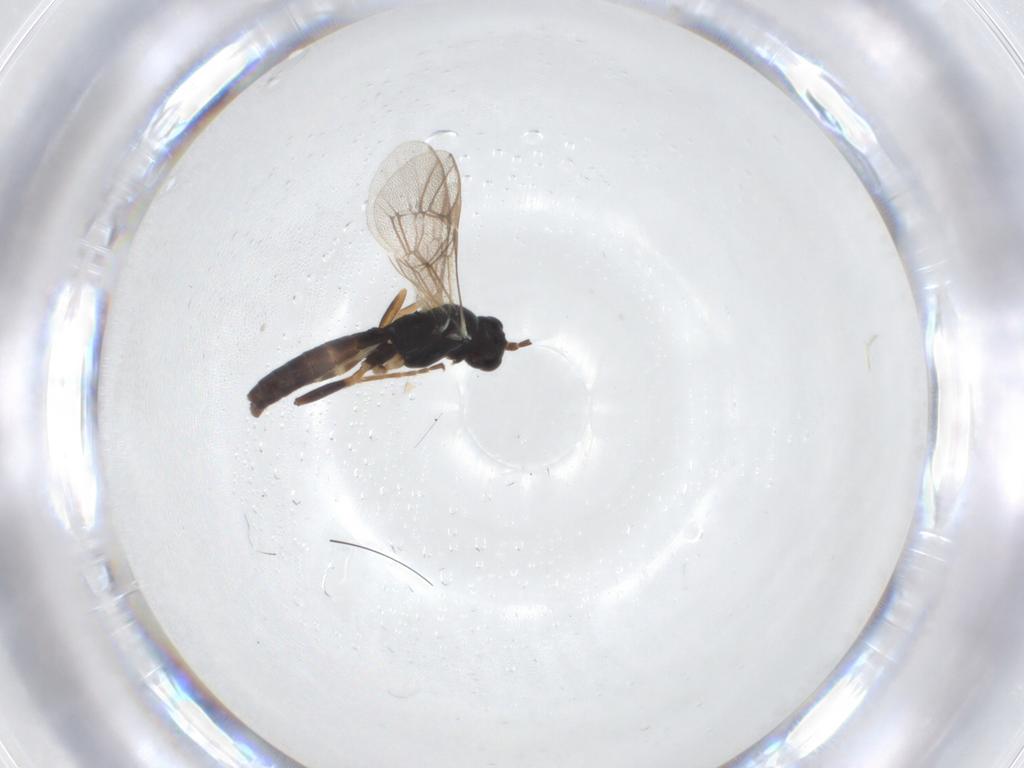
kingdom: Animalia
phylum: Arthropoda
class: Insecta
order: Hymenoptera
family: Ichneumonidae
